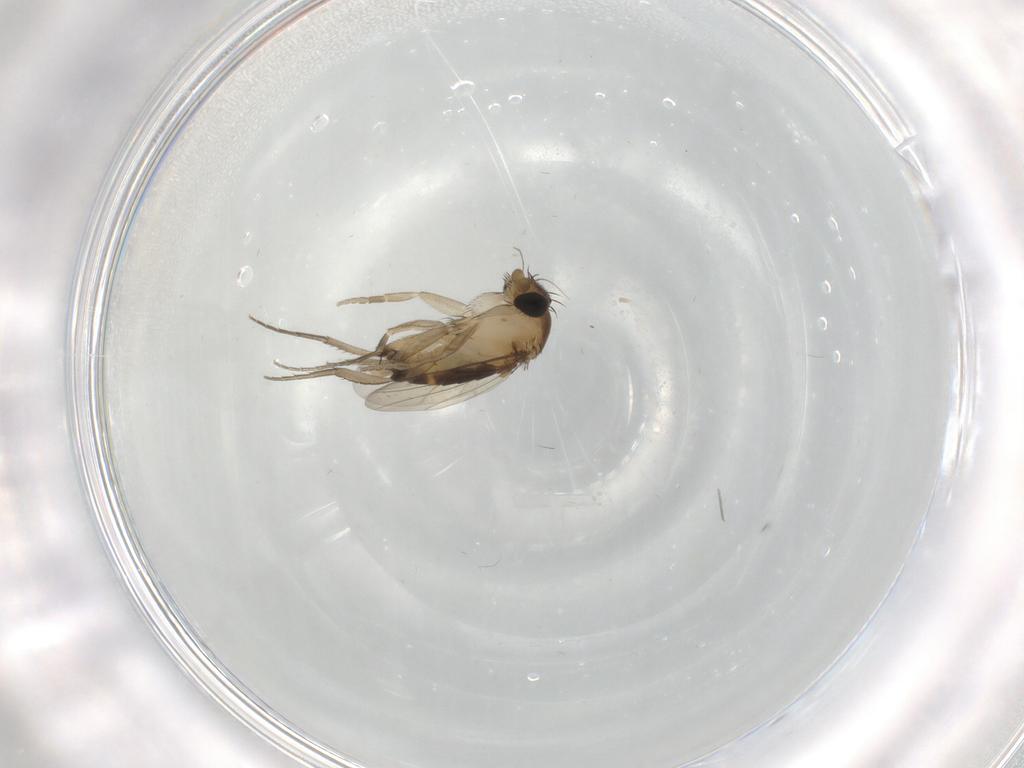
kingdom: Animalia
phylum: Arthropoda
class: Insecta
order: Diptera
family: Ceratopogonidae
